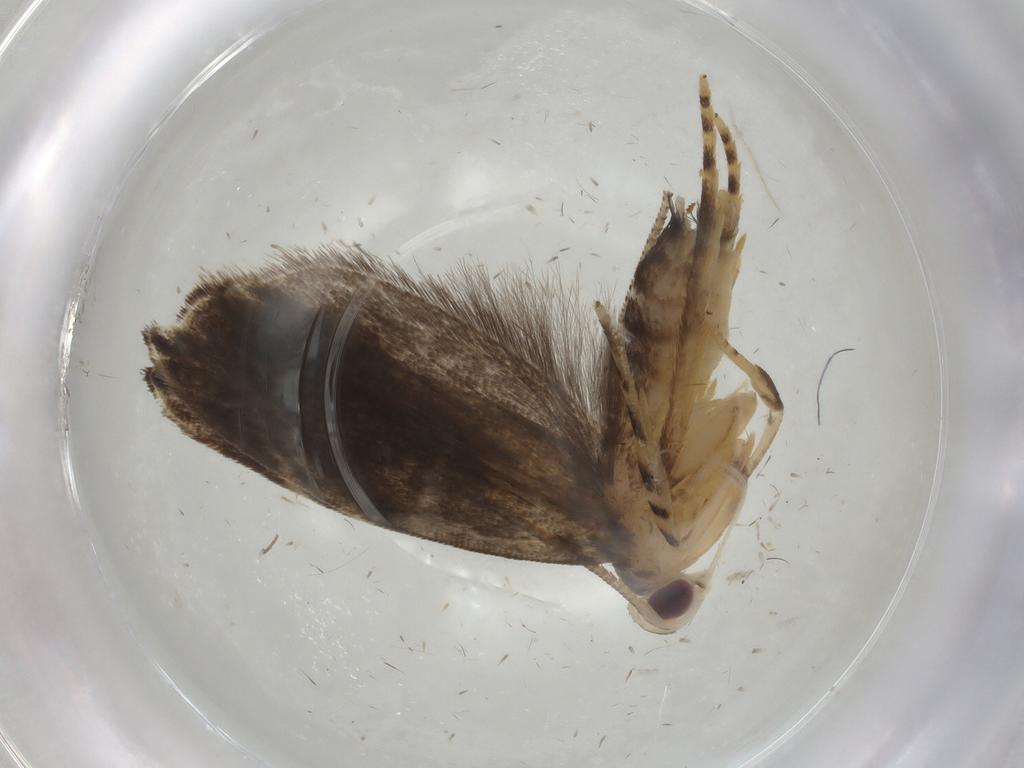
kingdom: Animalia
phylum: Arthropoda
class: Insecta
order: Lepidoptera
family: Gelechiidae
